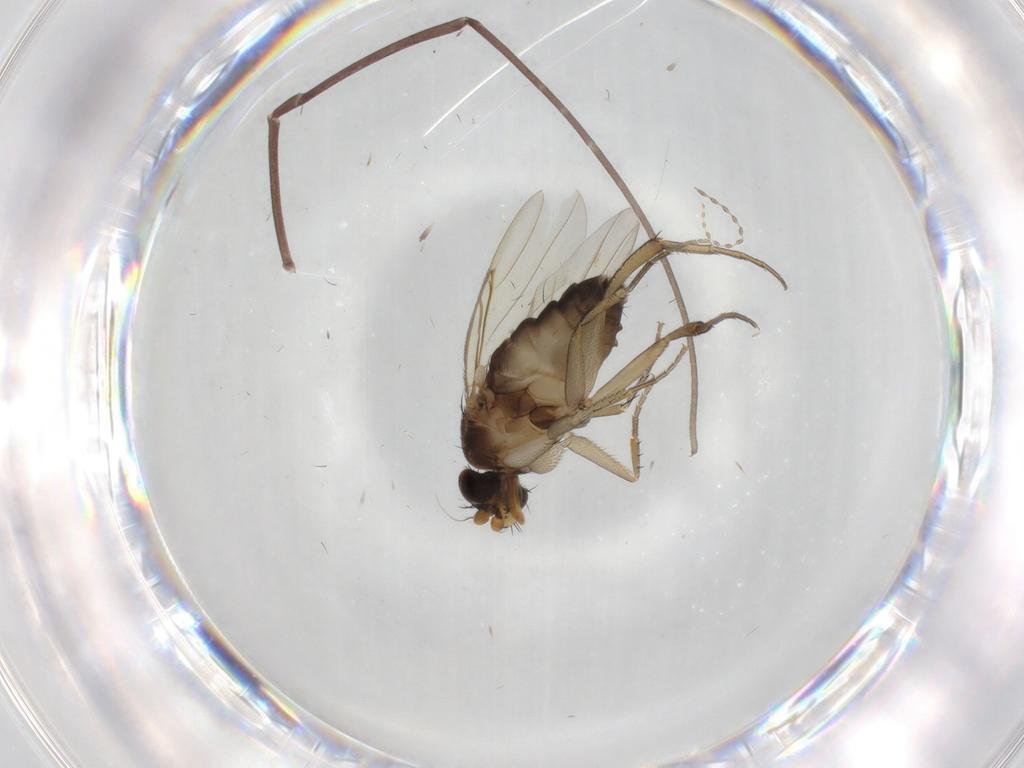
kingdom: Animalia
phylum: Arthropoda
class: Insecta
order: Diptera
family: Phoridae
